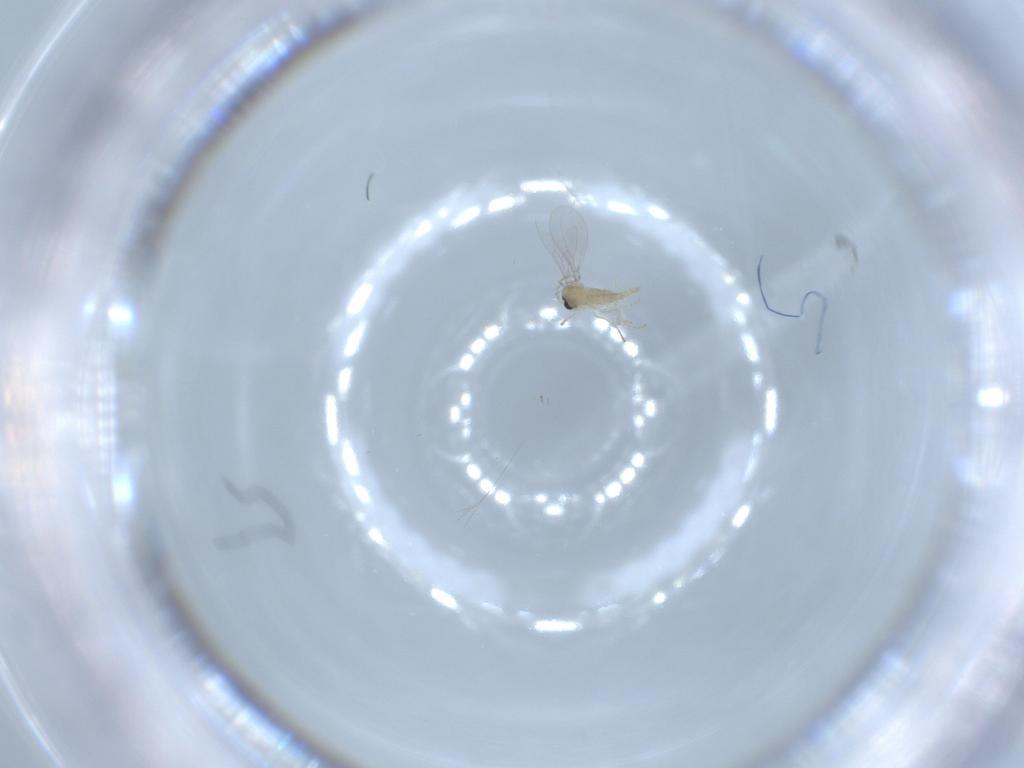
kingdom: Animalia
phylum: Arthropoda
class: Insecta
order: Diptera
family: Cecidomyiidae
